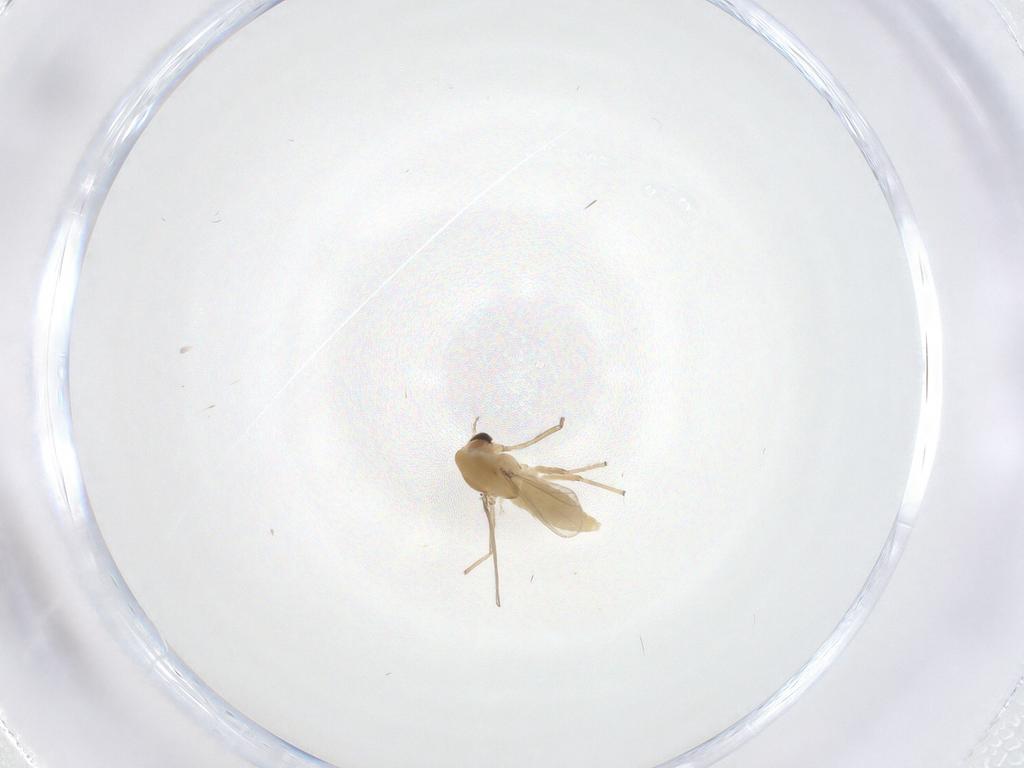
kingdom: Animalia
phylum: Arthropoda
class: Insecta
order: Diptera
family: Chironomidae
